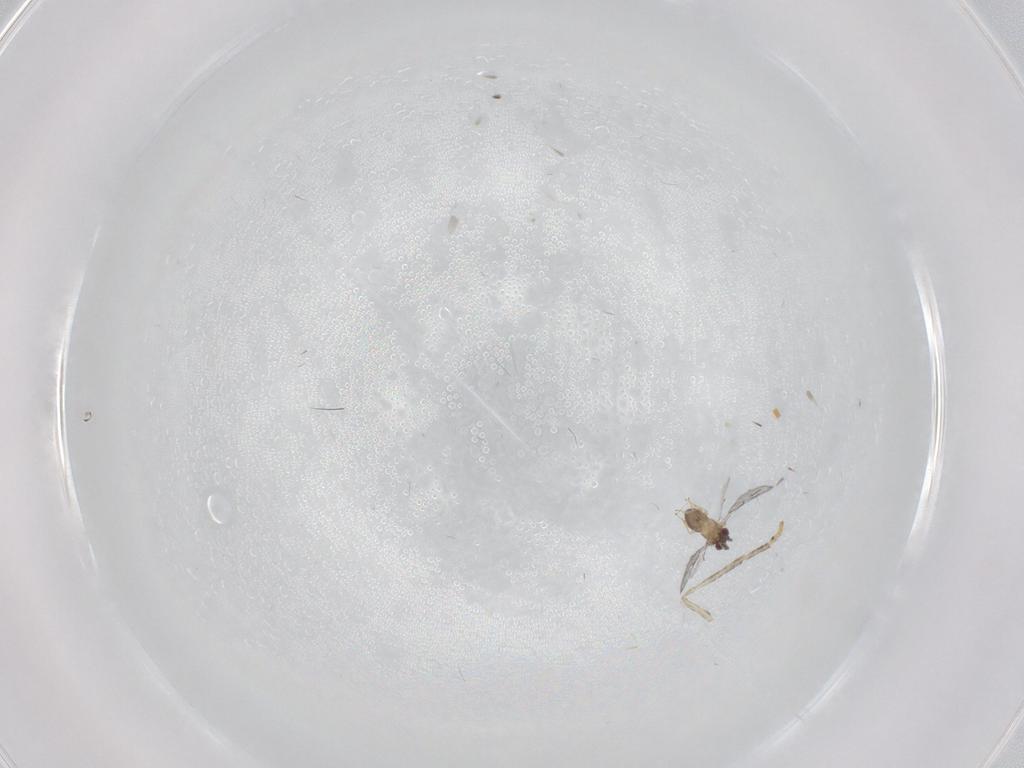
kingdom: Animalia
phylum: Arthropoda
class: Insecta
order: Diptera
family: Psychodidae
